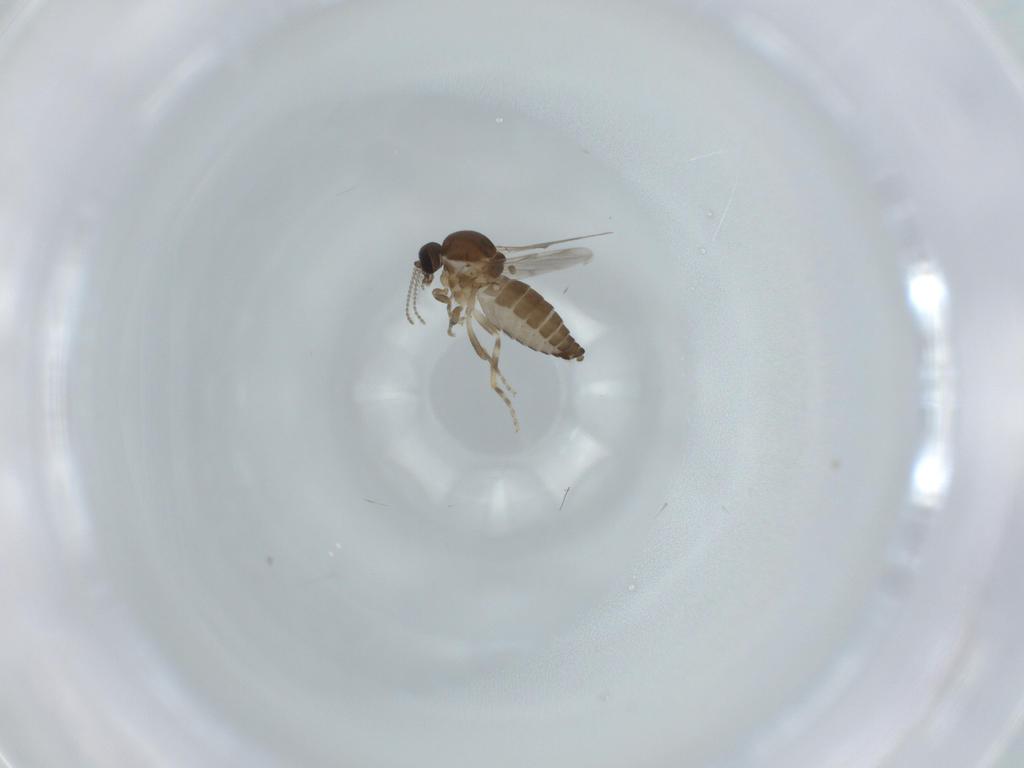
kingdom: Animalia
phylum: Arthropoda
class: Insecta
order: Diptera
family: Ceratopogonidae
